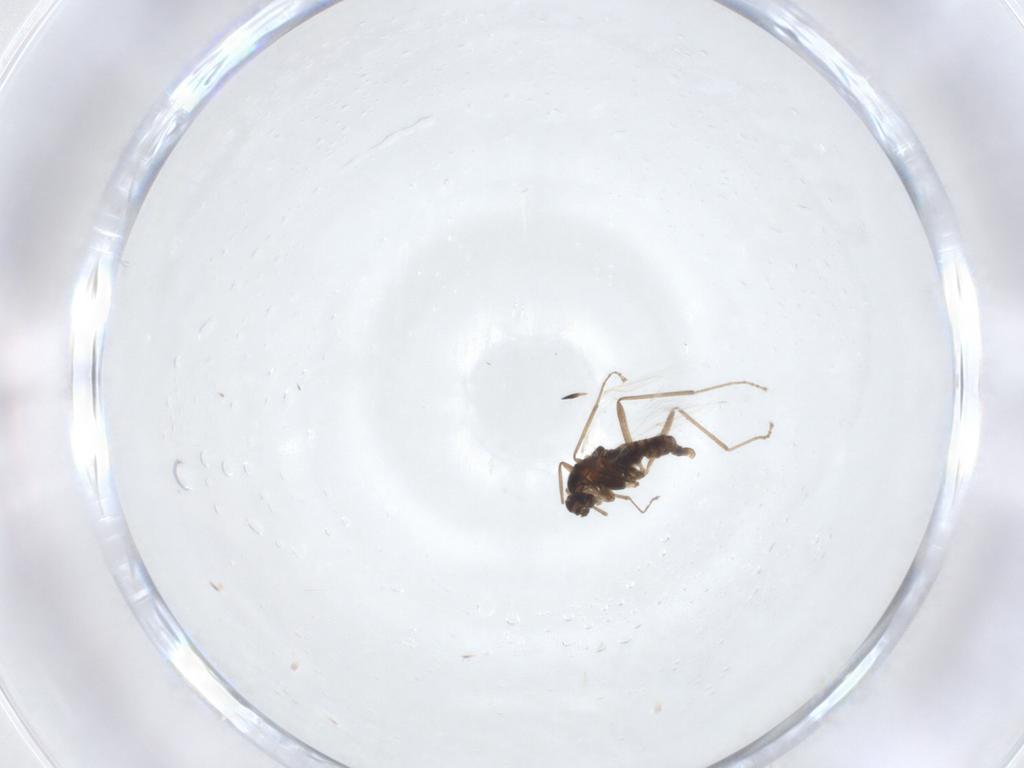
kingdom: Animalia
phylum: Arthropoda
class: Insecta
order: Diptera
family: Cecidomyiidae
